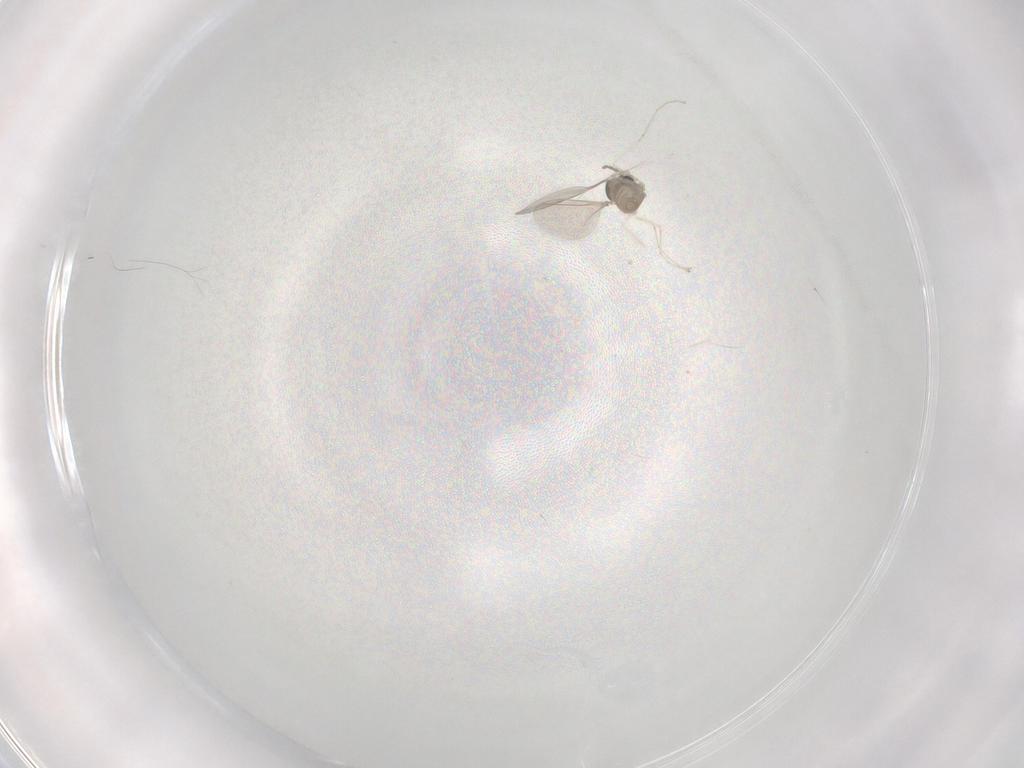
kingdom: Animalia
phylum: Arthropoda
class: Insecta
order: Diptera
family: Cecidomyiidae
